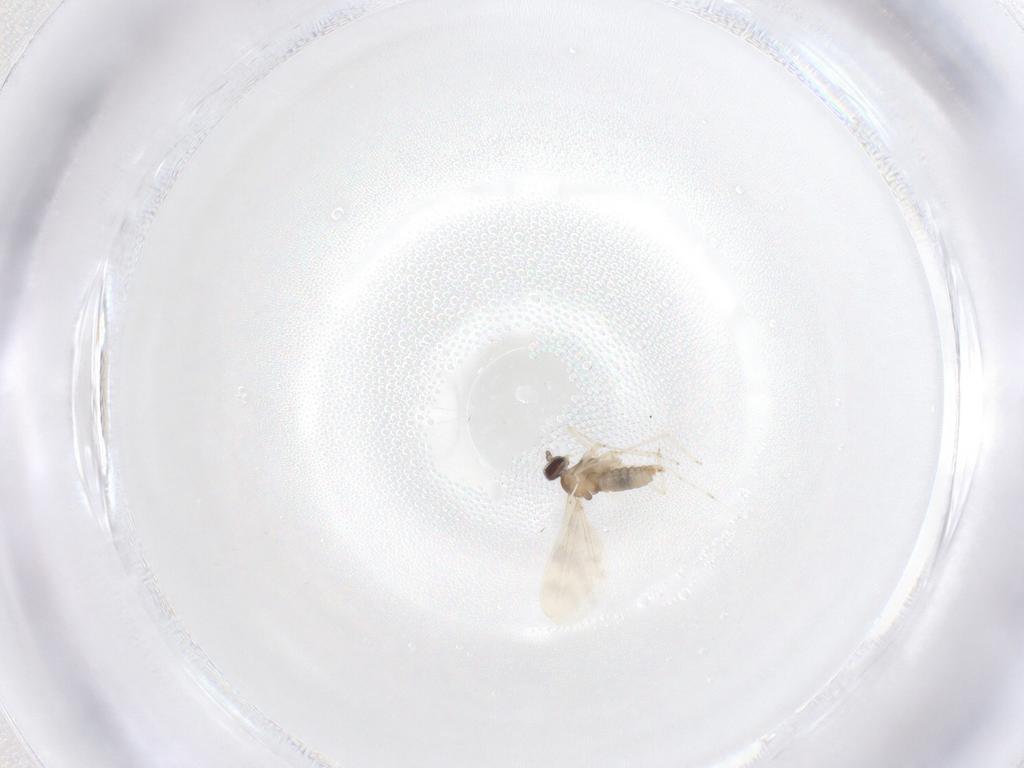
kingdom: Animalia
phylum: Arthropoda
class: Insecta
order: Diptera
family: Cecidomyiidae
